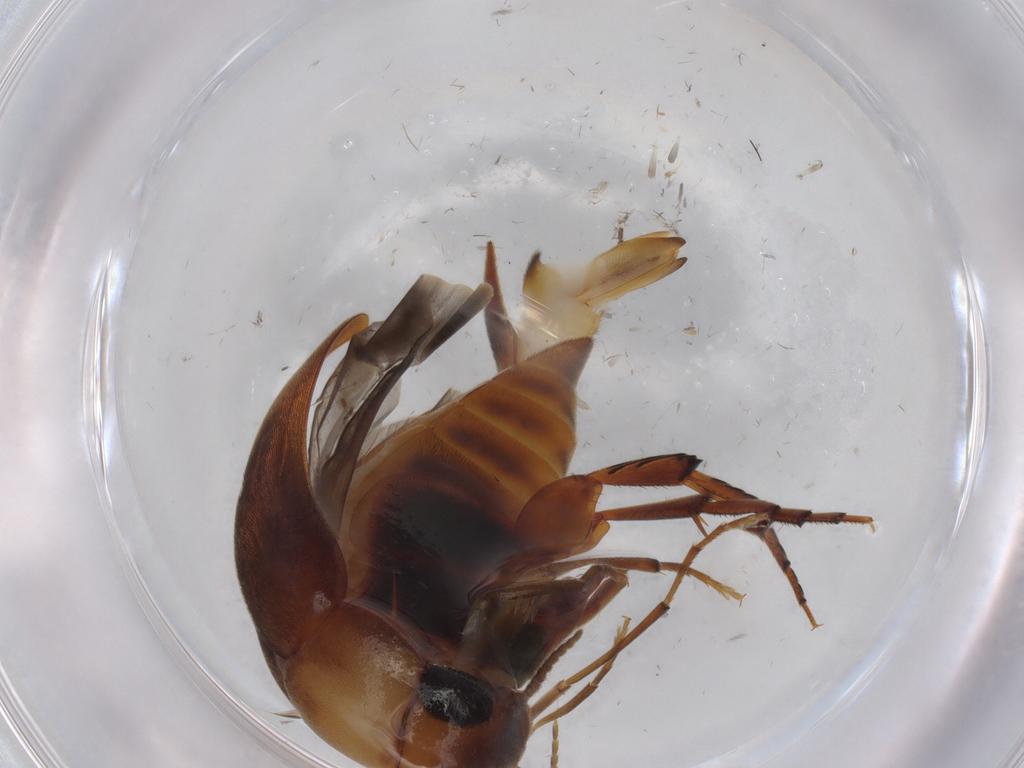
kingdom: Animalia
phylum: Arthropoda
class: Insecta
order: Coleoptera
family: Mordellidae
